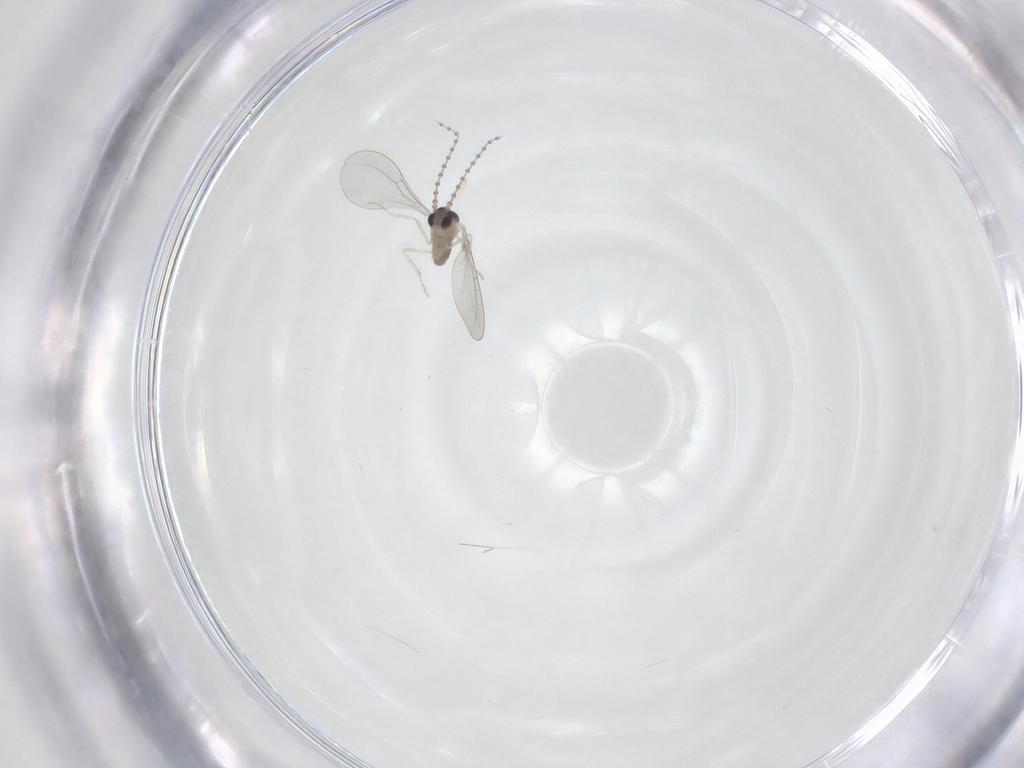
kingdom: Animalia
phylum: Arthropoda
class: Insecta
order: Diptera
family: Cecidomyiidae
